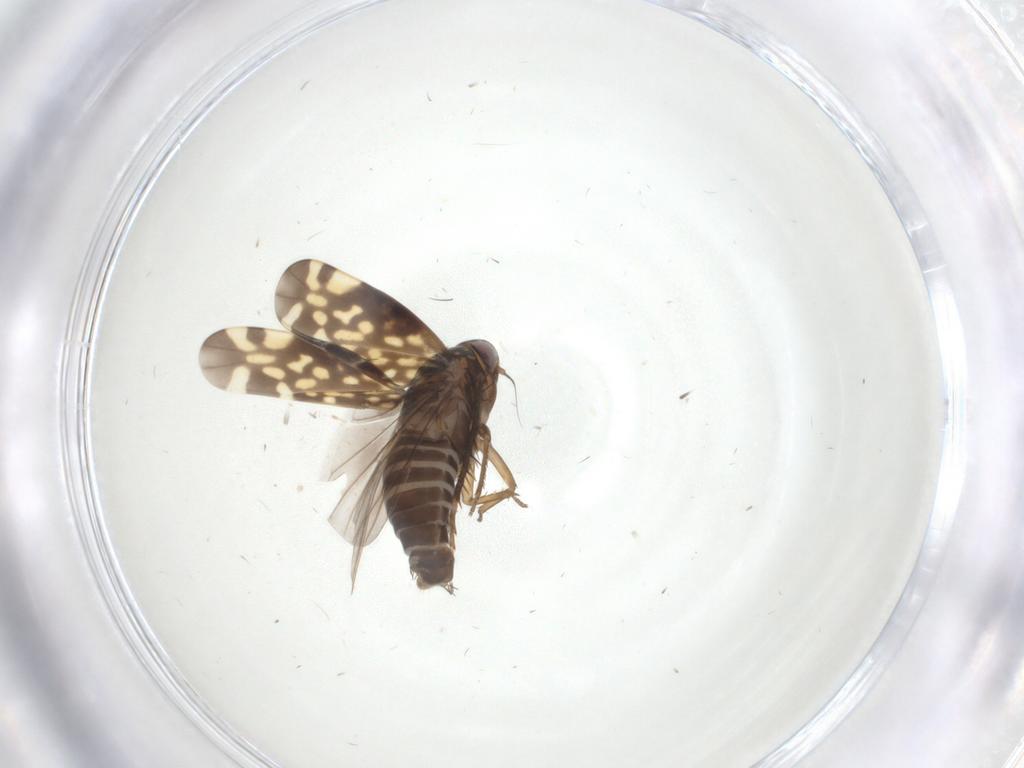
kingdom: Animalia
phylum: Arthropoda
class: Insecta
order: Hemiptera
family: Cicadellidae
